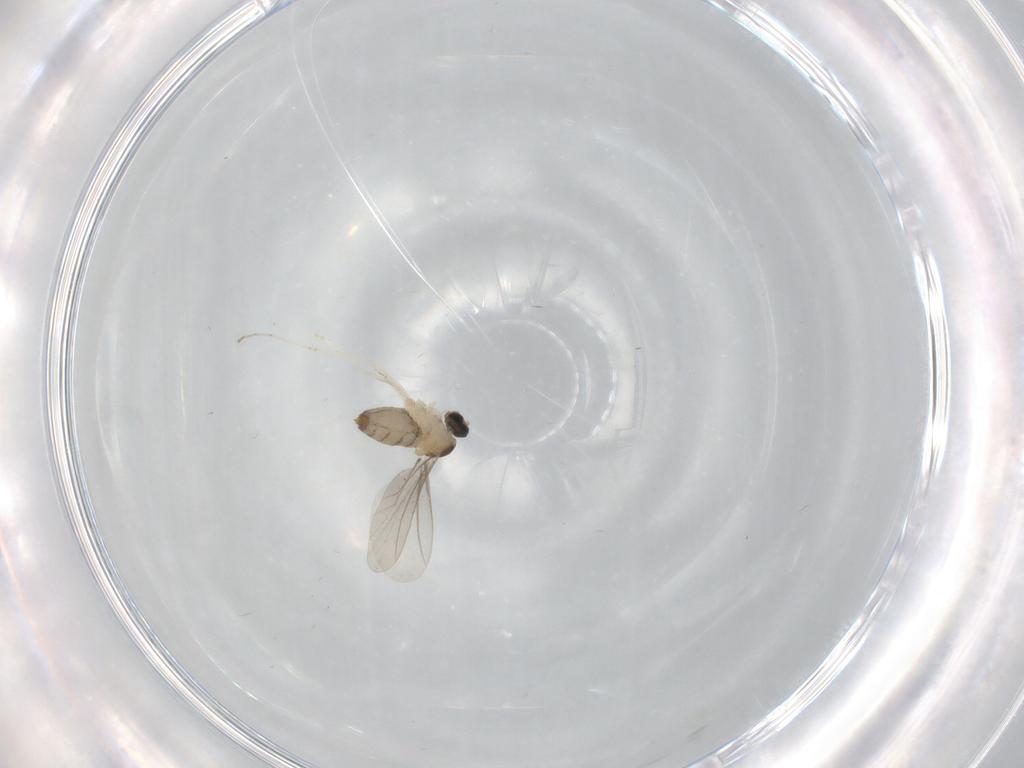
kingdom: Animalia
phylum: Arthropoda
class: Insecta
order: Diptera
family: Cecidomyiidae
